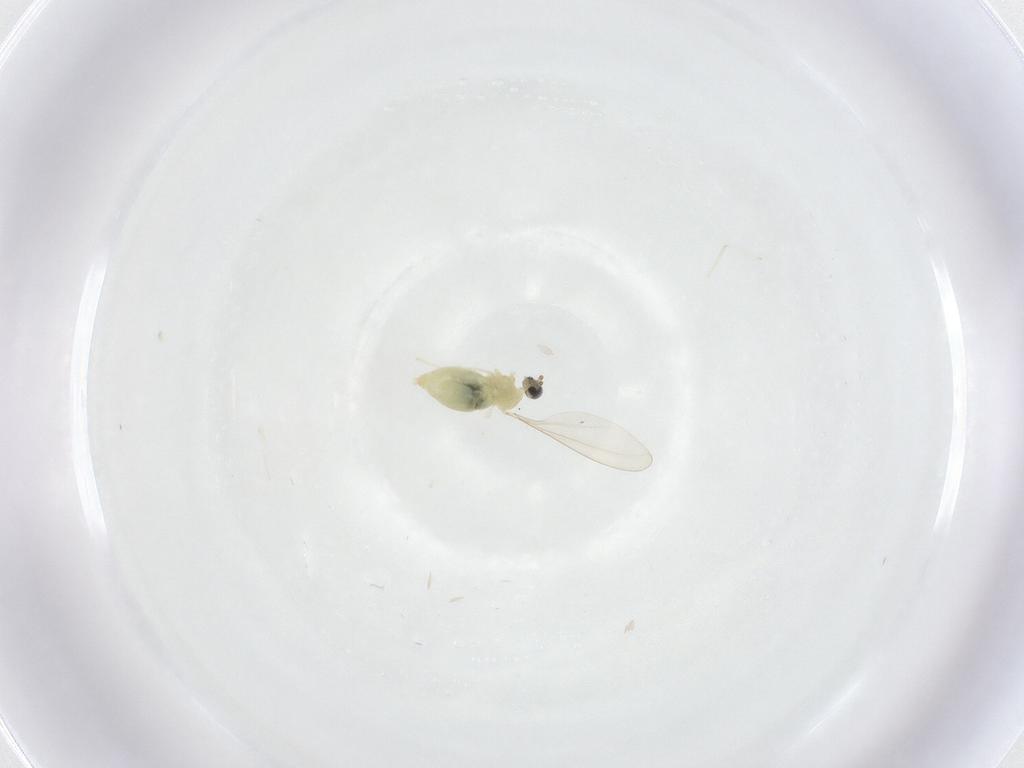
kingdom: Animalia
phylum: Arthropoda
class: Insecta
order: Diptera
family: Cecidomyiidae
